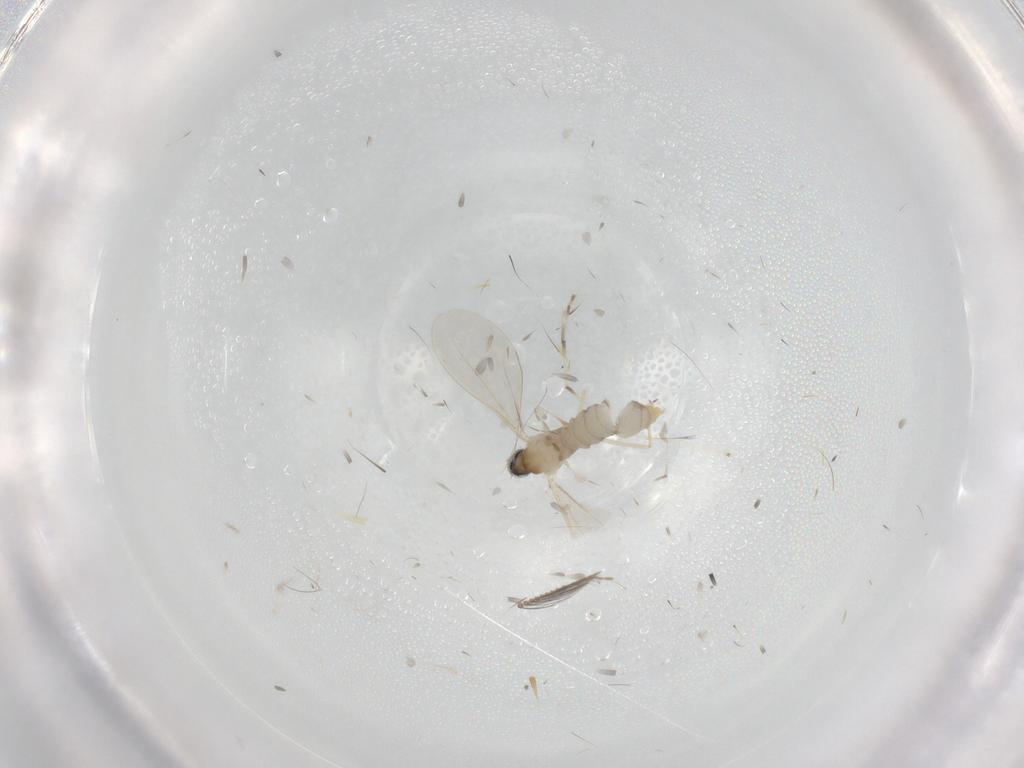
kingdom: Animalia
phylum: Arthropoda
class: Insecta
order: Diptera
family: Cecidomyiidae
